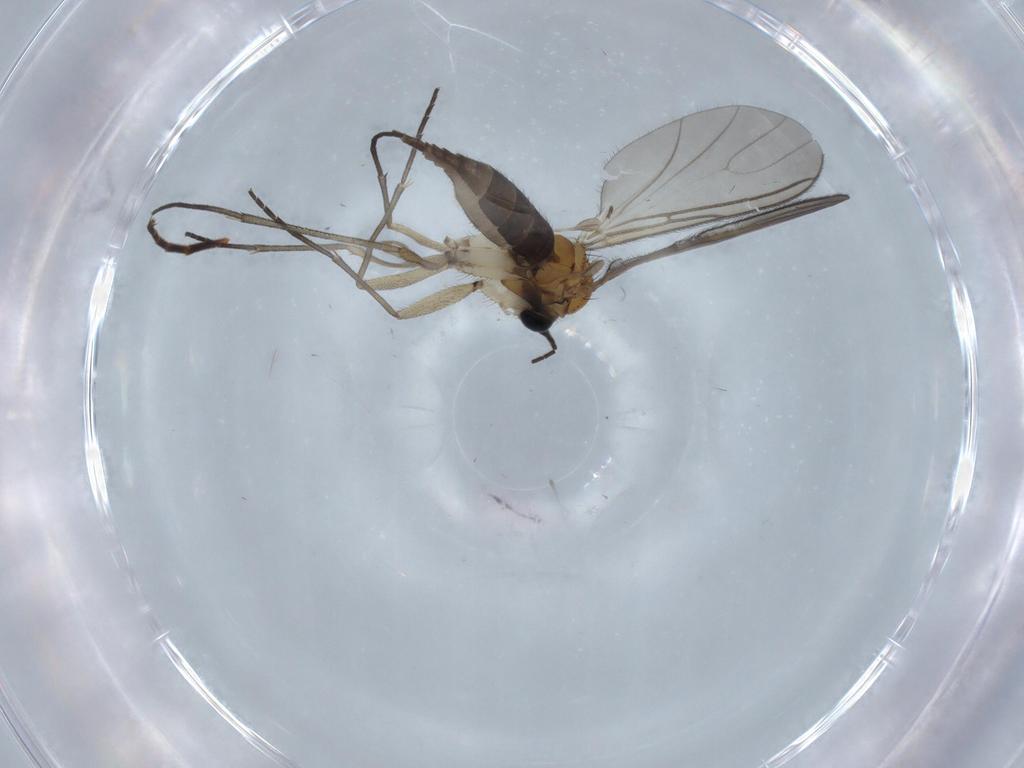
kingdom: Animalia
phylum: Arthropoda
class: Insecta
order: Diptera
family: Sciaridae
